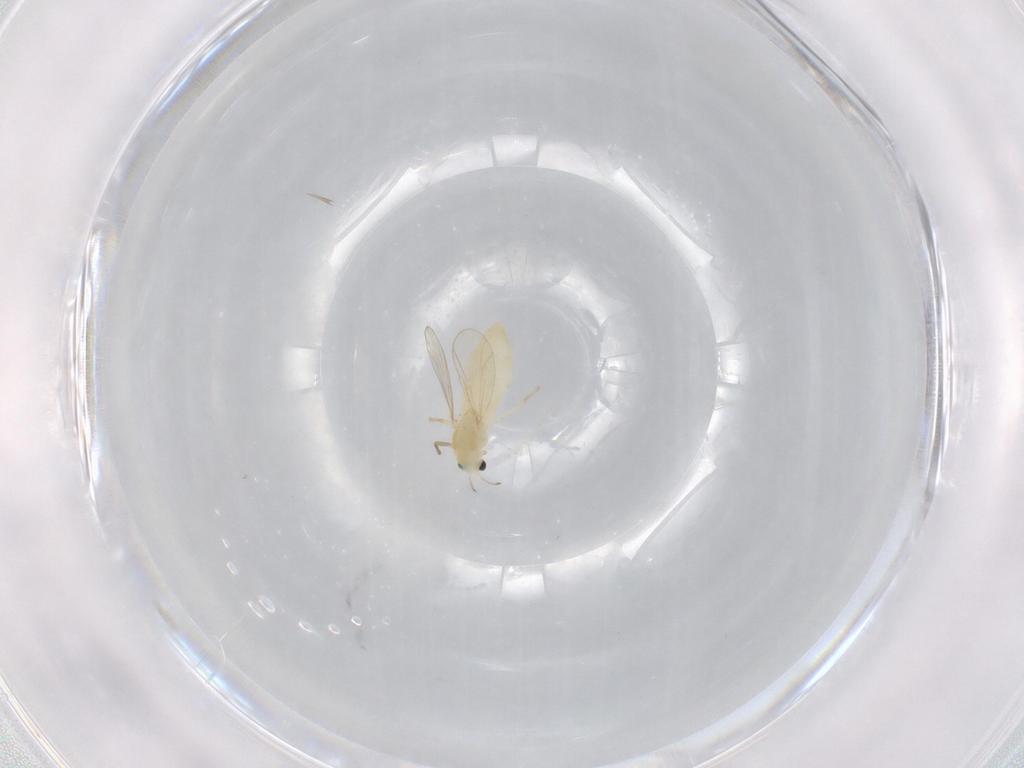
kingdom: Animalia
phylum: Arthropoda
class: Insecta
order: Diptera
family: Chironomidae
